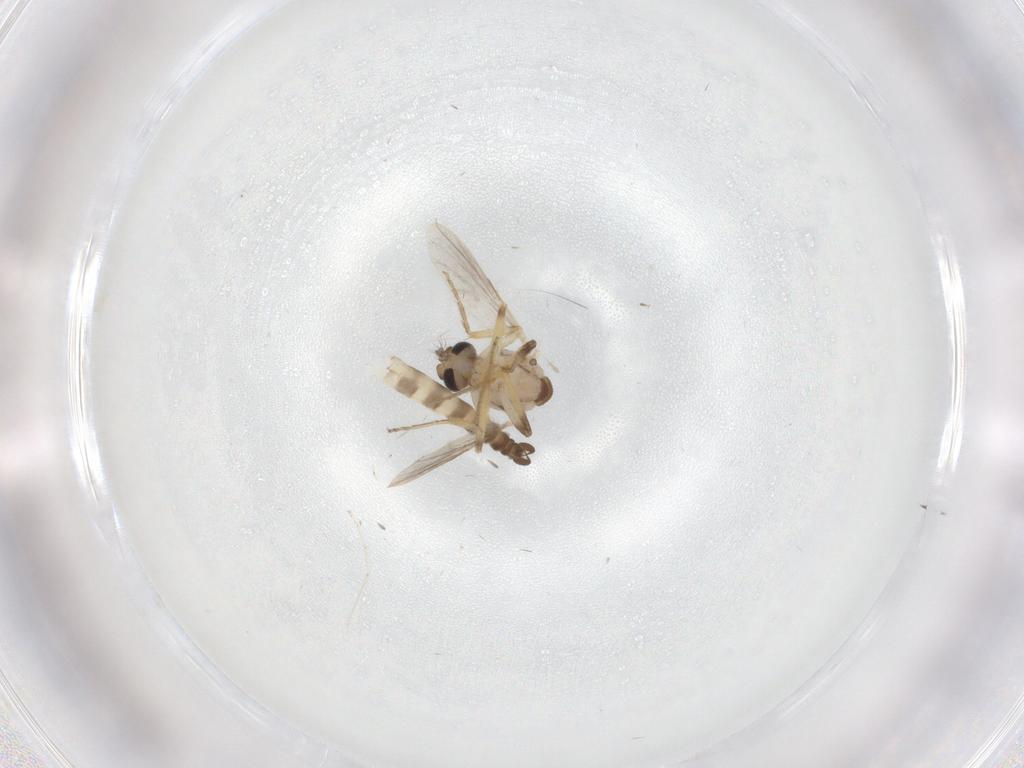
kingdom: Animalia
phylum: Arthropoda
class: Insecta
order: Diptera
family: Ceratopogonidae
